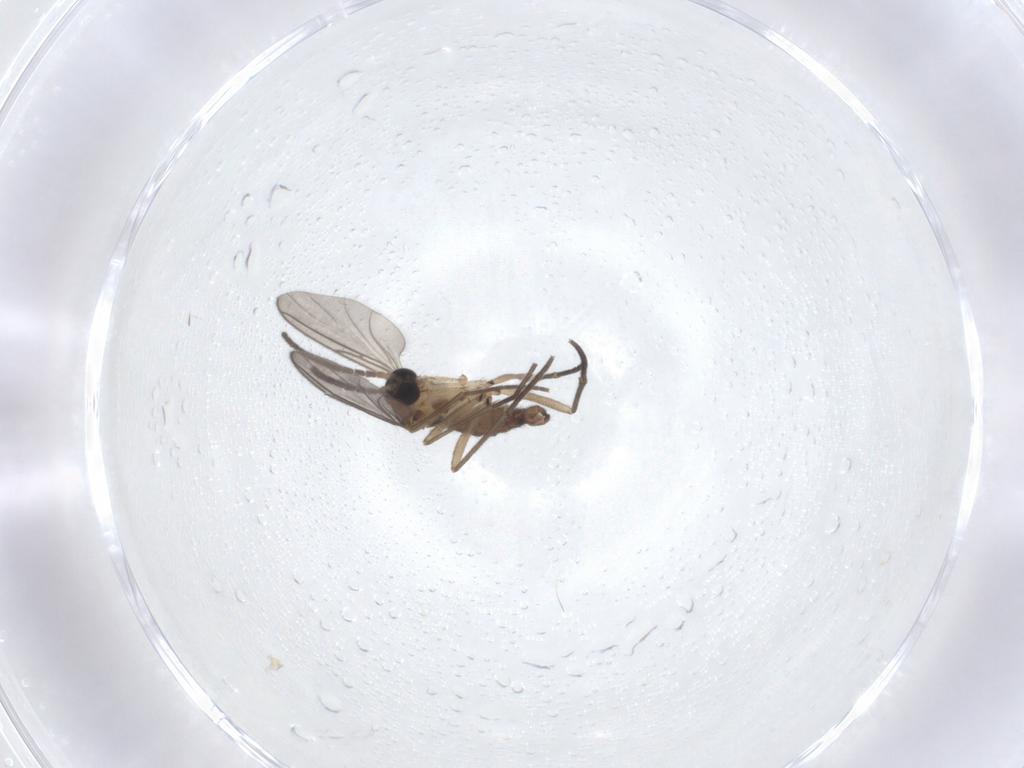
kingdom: Animalia
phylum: Arthropoda
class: Insecta
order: Diptera
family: Sciaridae
